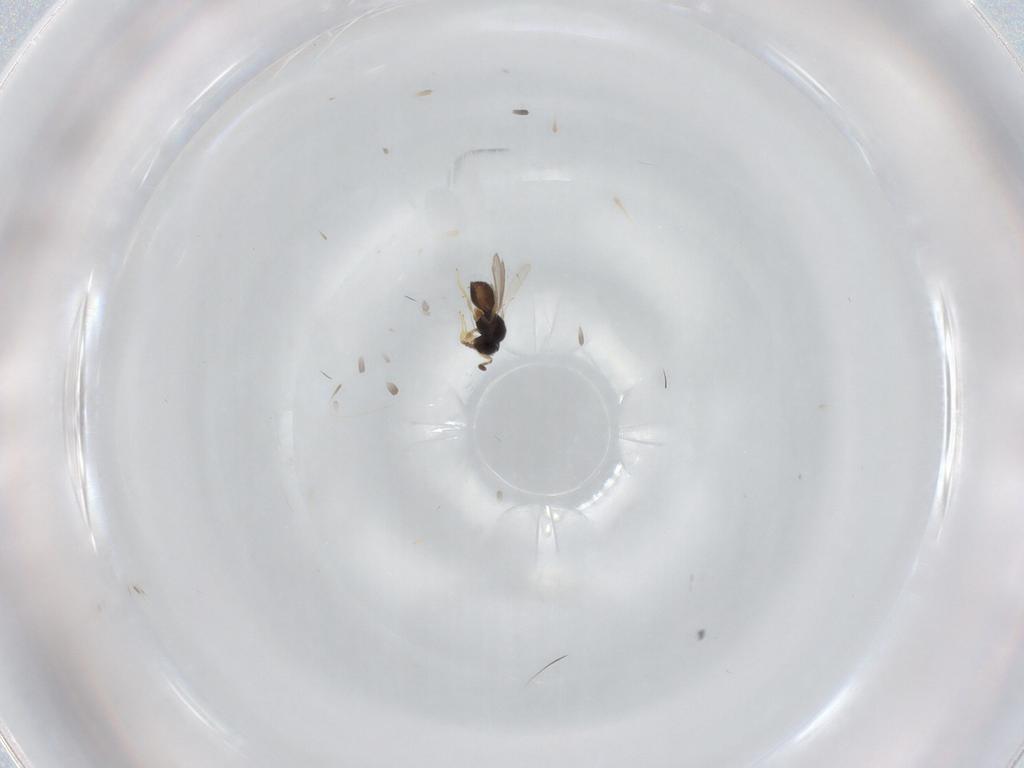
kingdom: Animalia
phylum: Arthropoda
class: Insecta
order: Hymenoptera
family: Scelionidae
